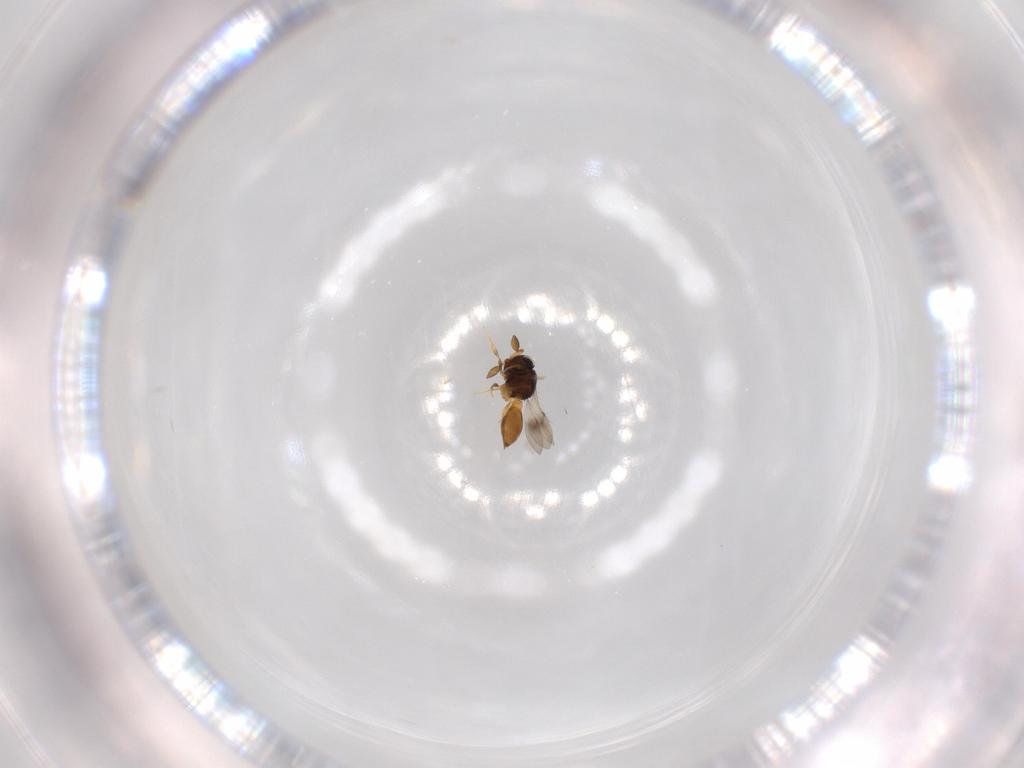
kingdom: Animalia
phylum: Arthropoda
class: Insecta
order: Hymenoptera
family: Scelionidae
